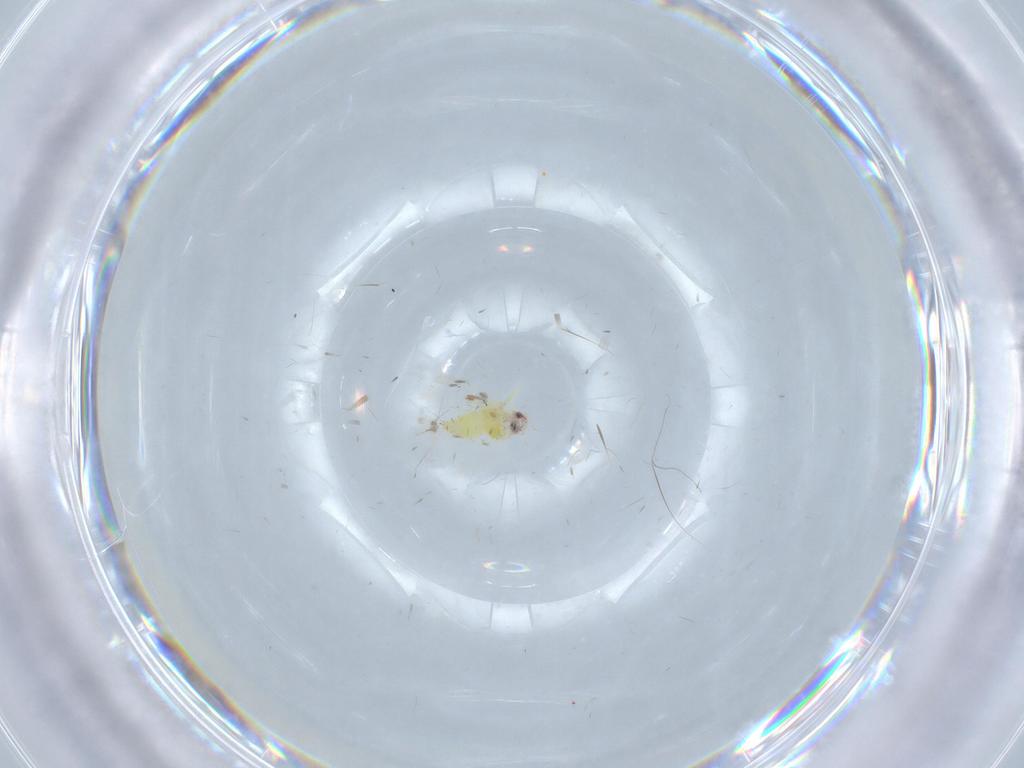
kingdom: Animalia
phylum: Arthropoda
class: Insecta
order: Hemiptera
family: Aleyrodidae
